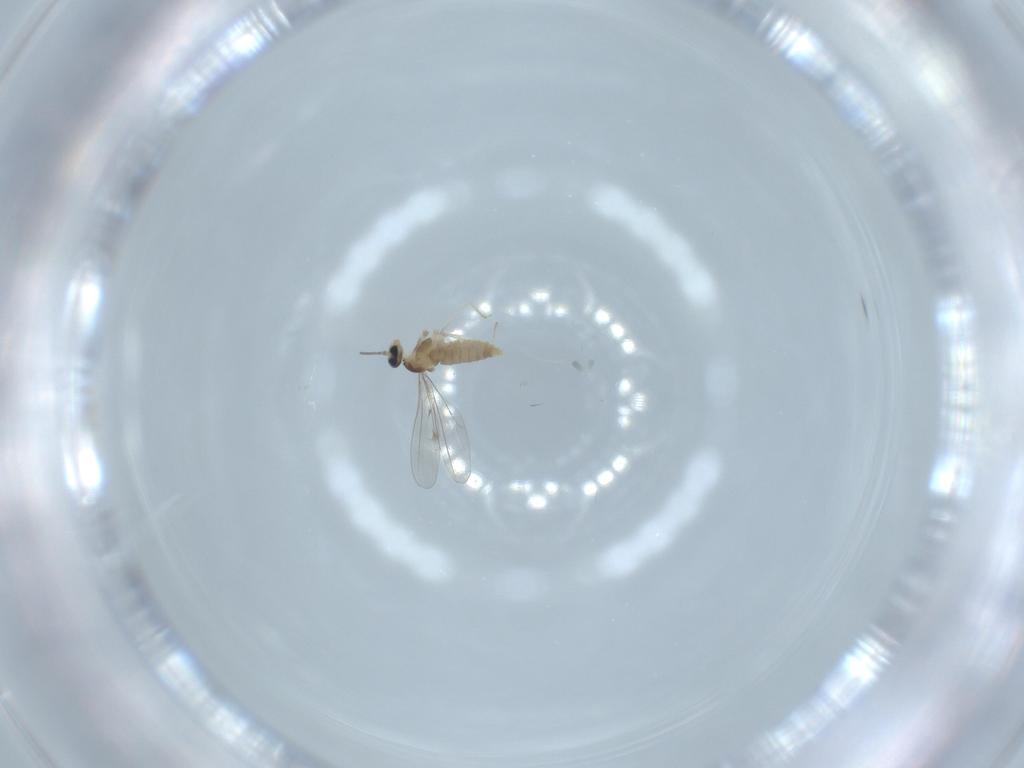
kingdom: Animalia
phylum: Arthropoda
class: Insecta
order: Diptera
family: Cecidomyiidae
